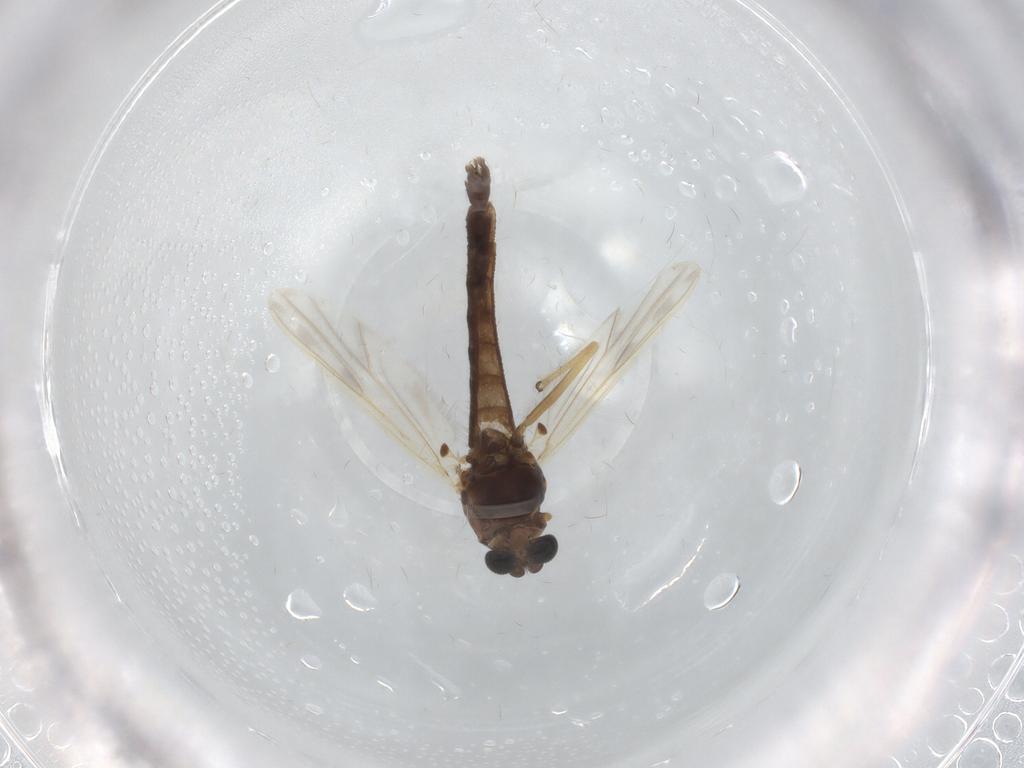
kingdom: Animalia
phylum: Arthropoda
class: Insecta
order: Diptera
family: Chironomidae
